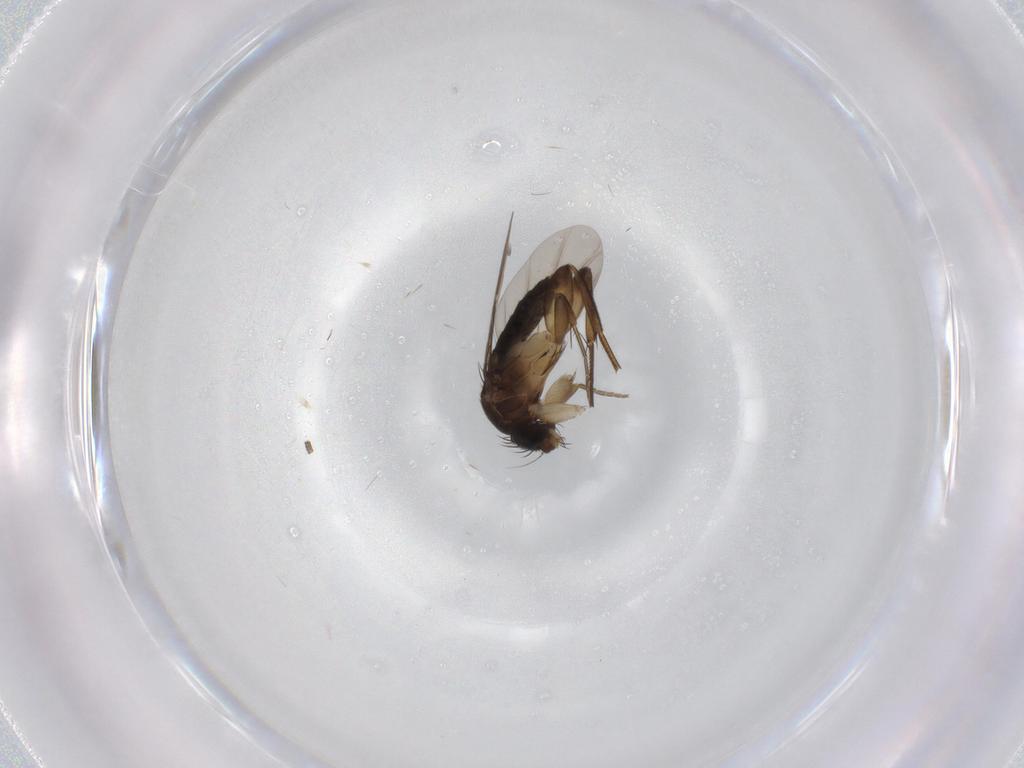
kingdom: Animalia
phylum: Arthropoda
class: Insecta
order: Diptera
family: Phoridae
